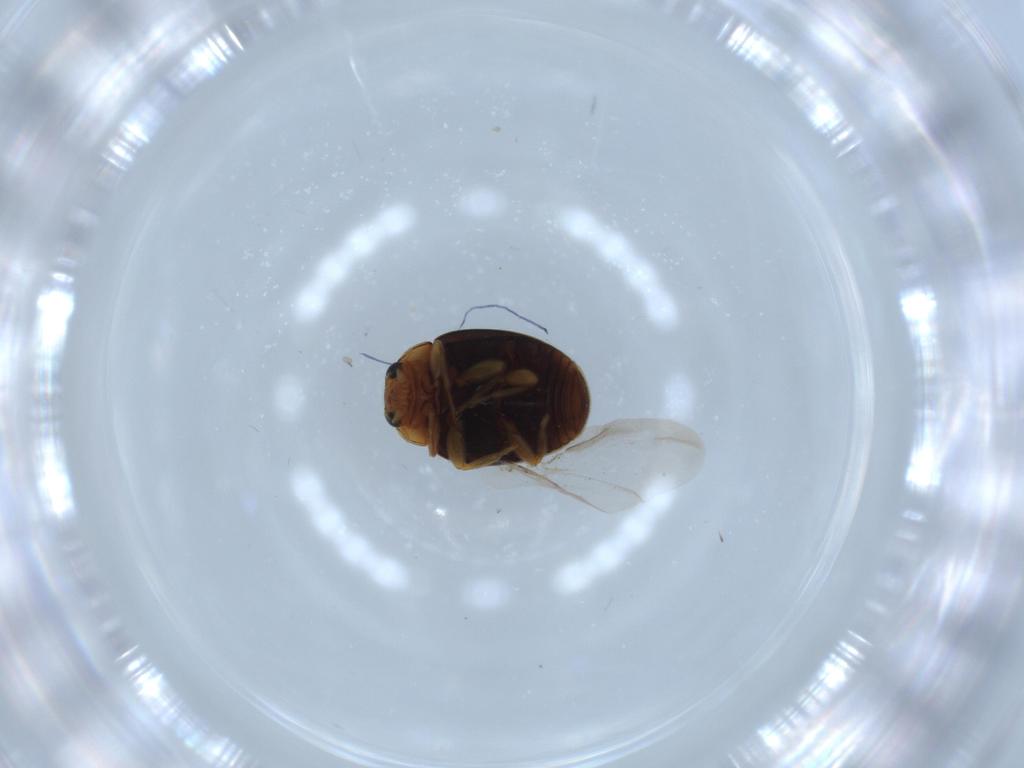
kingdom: Animalia
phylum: Arthropoda
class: Insecta
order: Coleoptera
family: Coccinellidae
